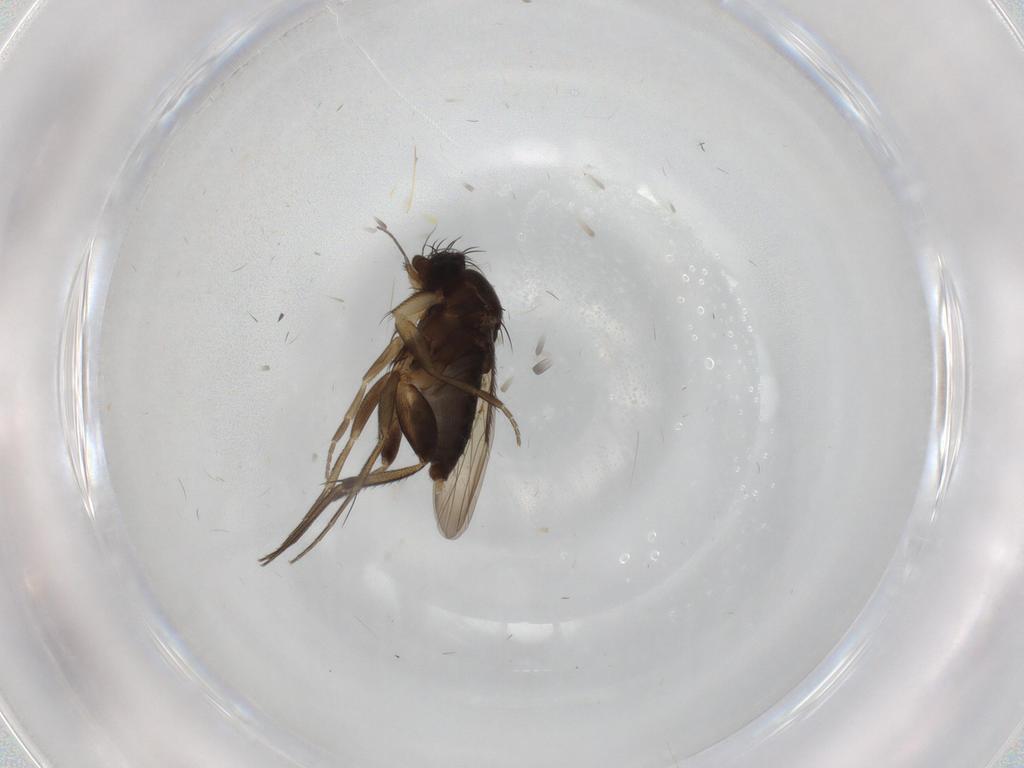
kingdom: Animalia
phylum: Arthropoda
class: Insecta
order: Diptera
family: Phoridae
